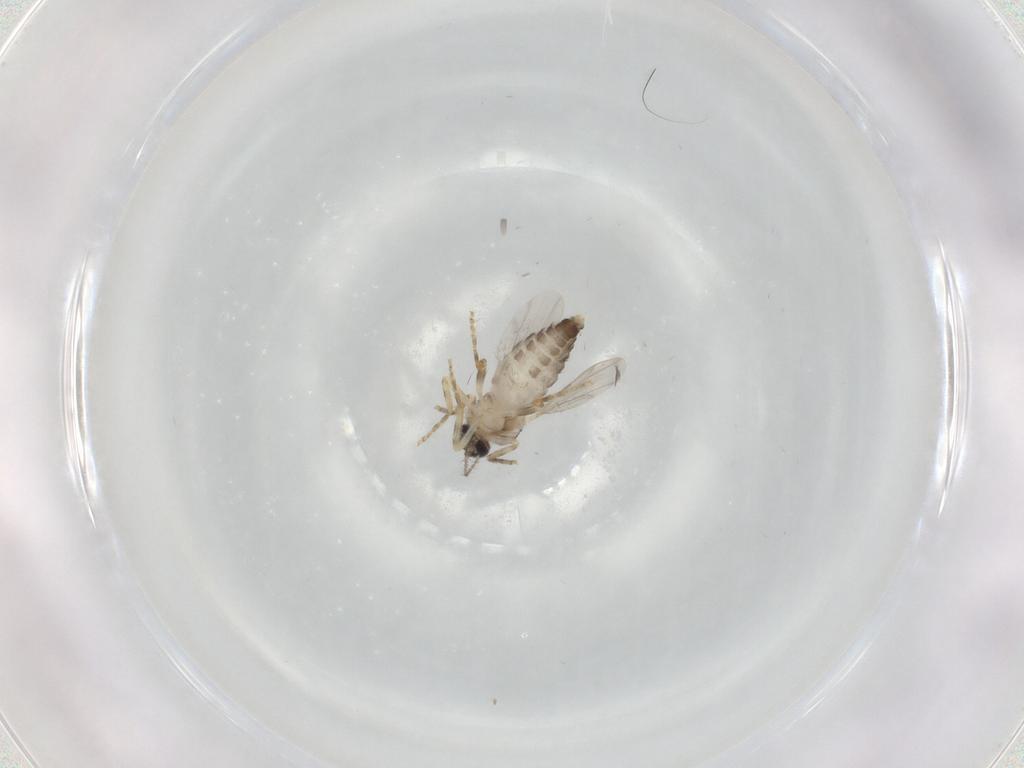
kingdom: Animalia
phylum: Arthropoda
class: Insecta
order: Diptera
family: Ceratopogonidae
